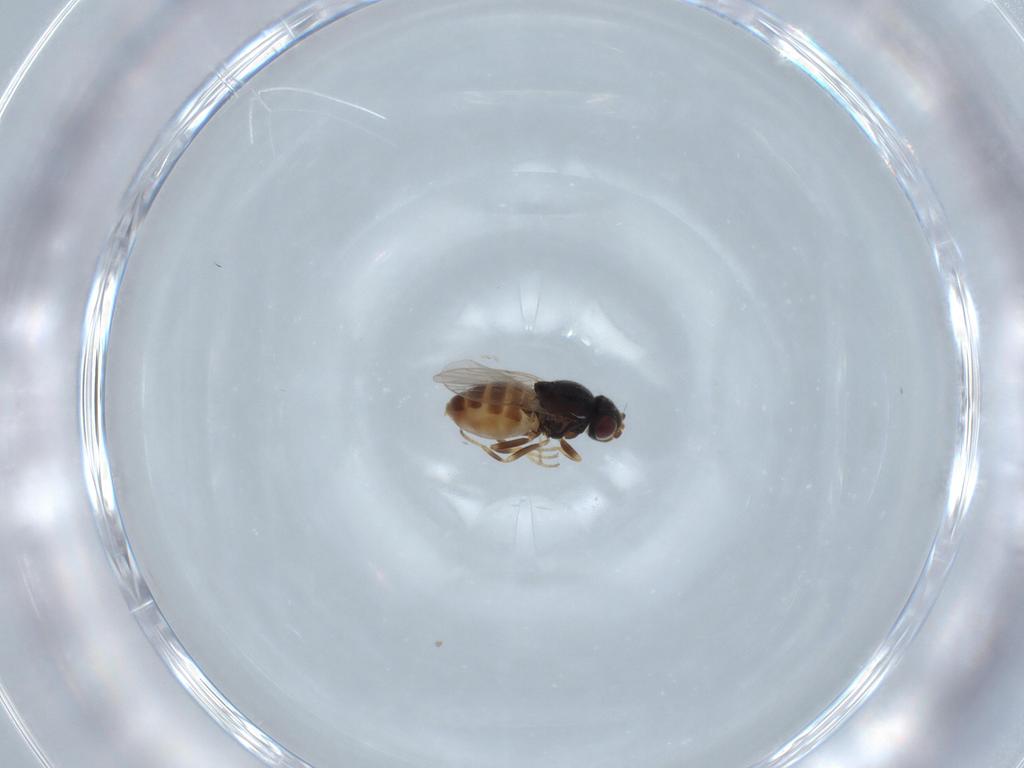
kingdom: Animalia
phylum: Arthropoda
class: Insecta
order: Diptera
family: Chloropidae
